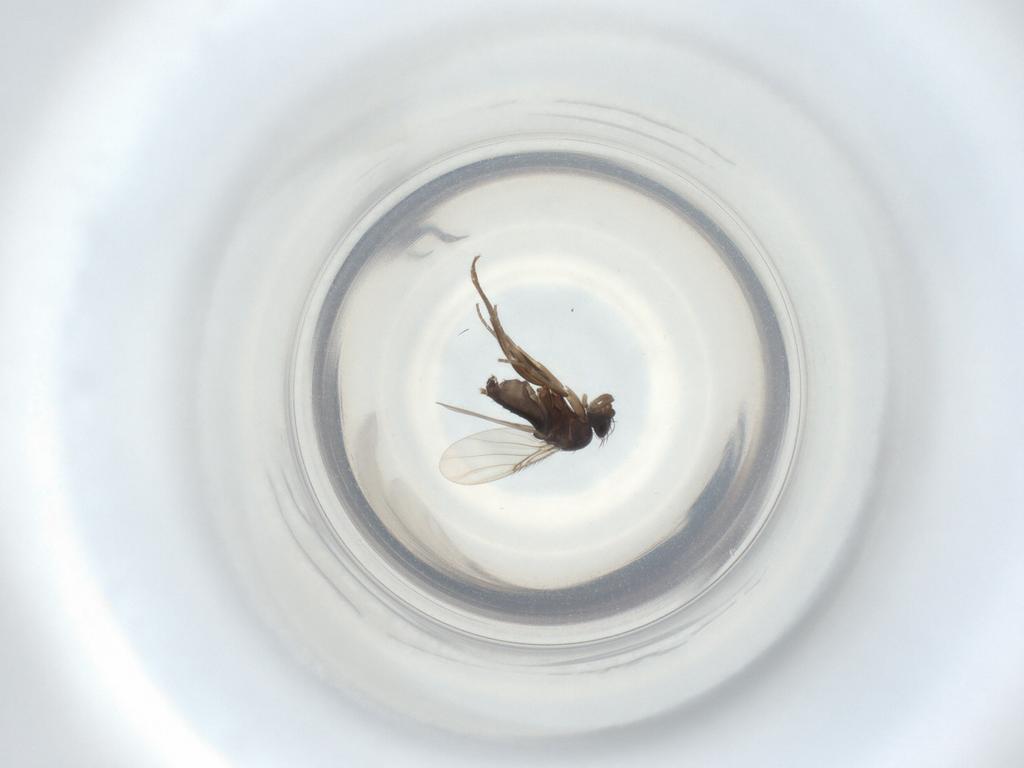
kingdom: Animalia
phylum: Arthropoda
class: Insecta
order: Diptera
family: Phoridae
